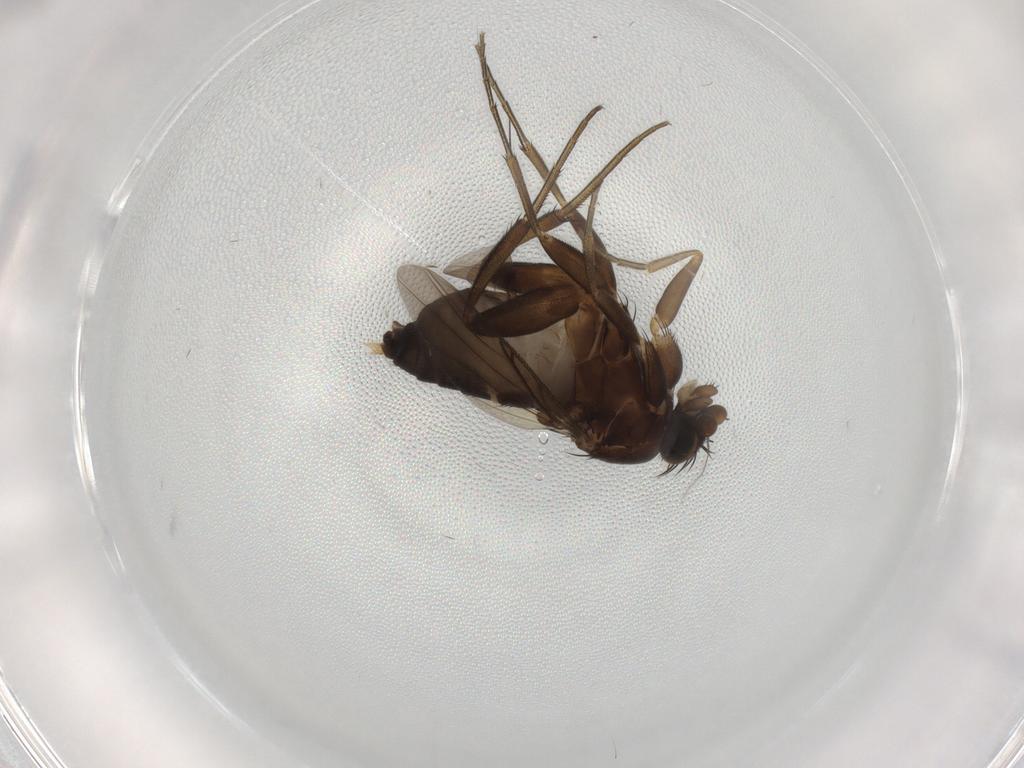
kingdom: Animalia
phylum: Arthropoda
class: Insecta
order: Diptera
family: Phoridae
